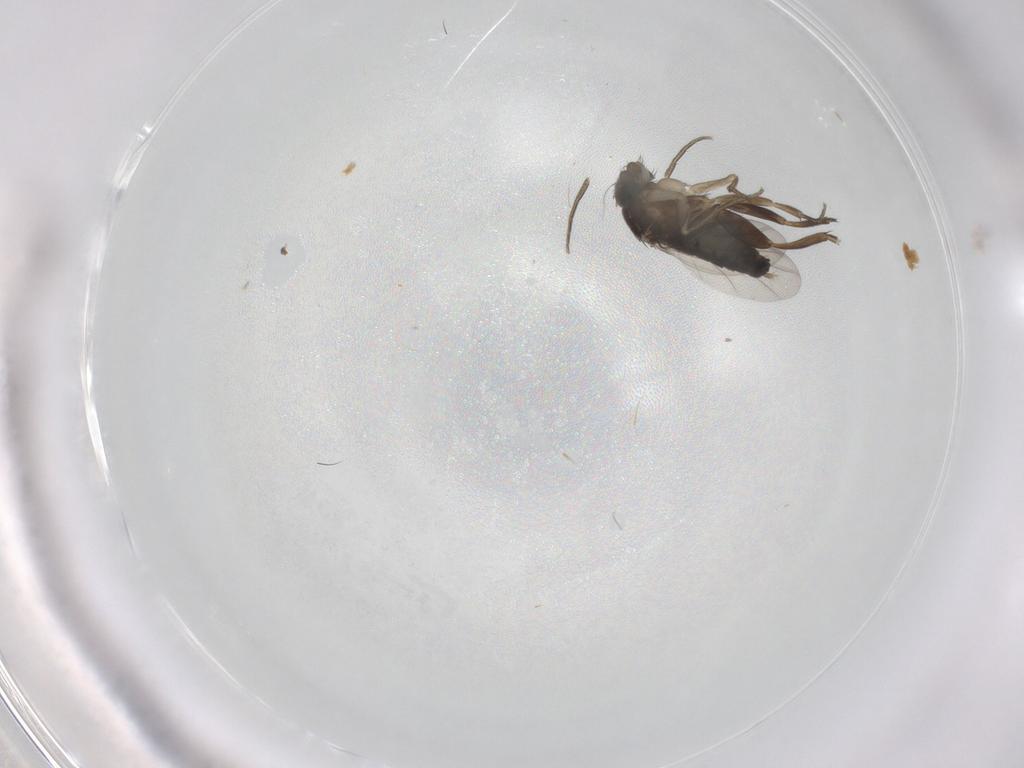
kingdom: Animalia
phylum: Arthropoda
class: Insecta
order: Diptera
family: Phoridae
